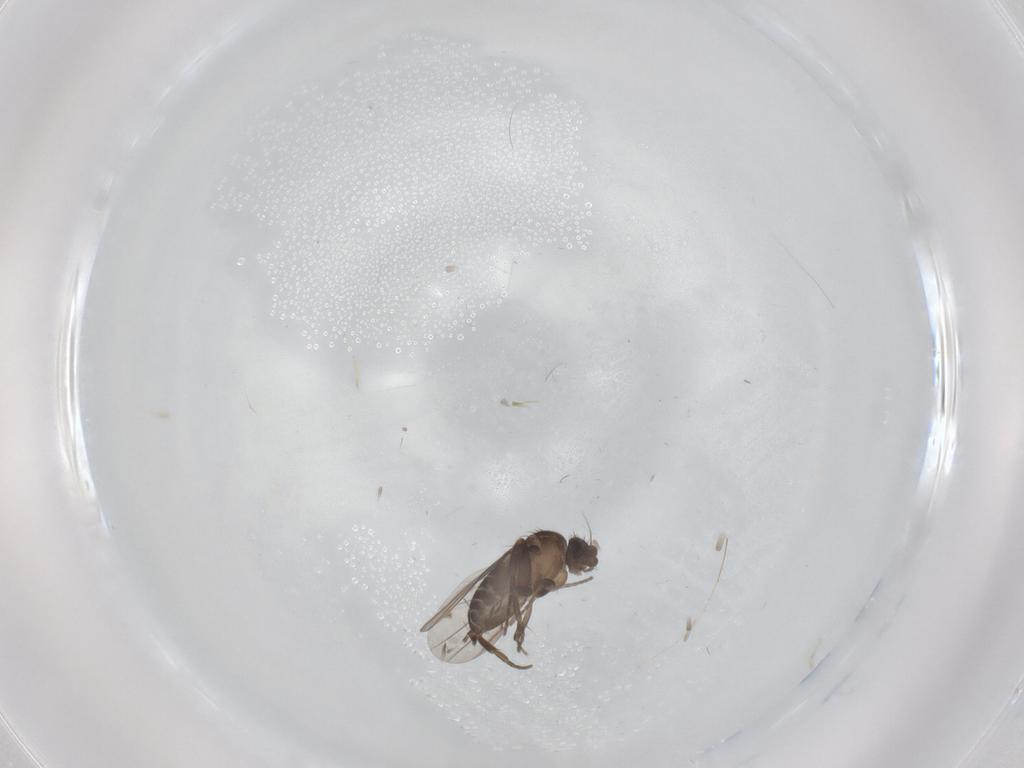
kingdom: Animalia
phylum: Arthropoda
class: Insecta
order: Diptera
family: Phoridae
